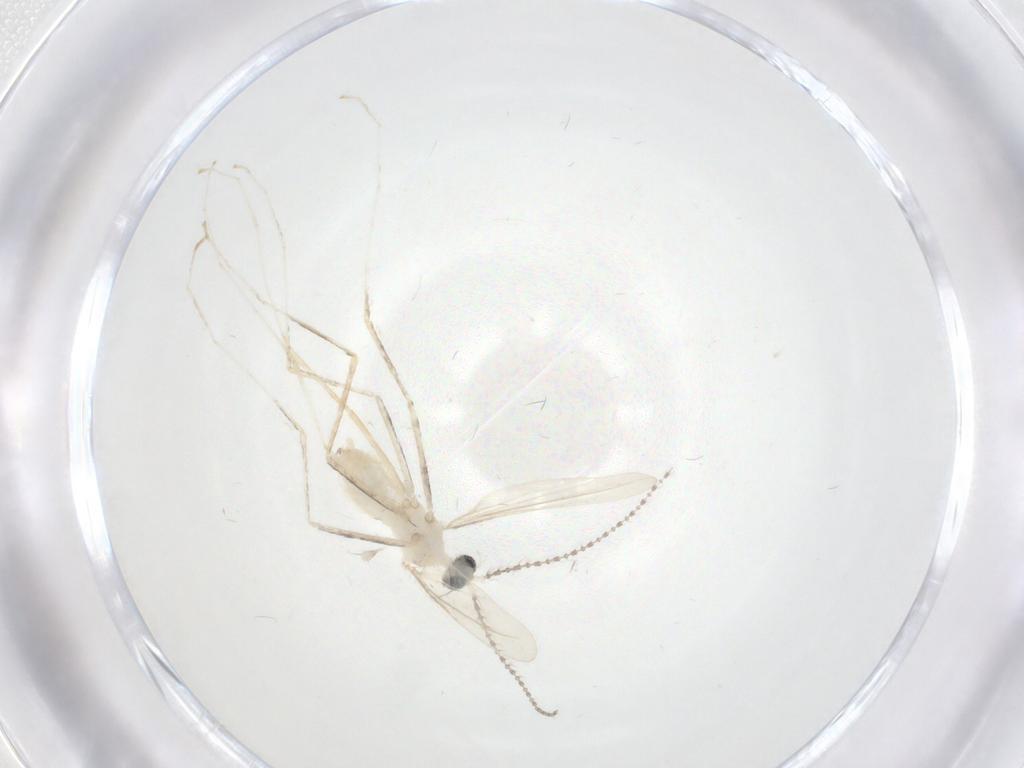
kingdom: Animalia
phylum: Arthropoda
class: Insecta
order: Diptera
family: Cecidomyiidae
